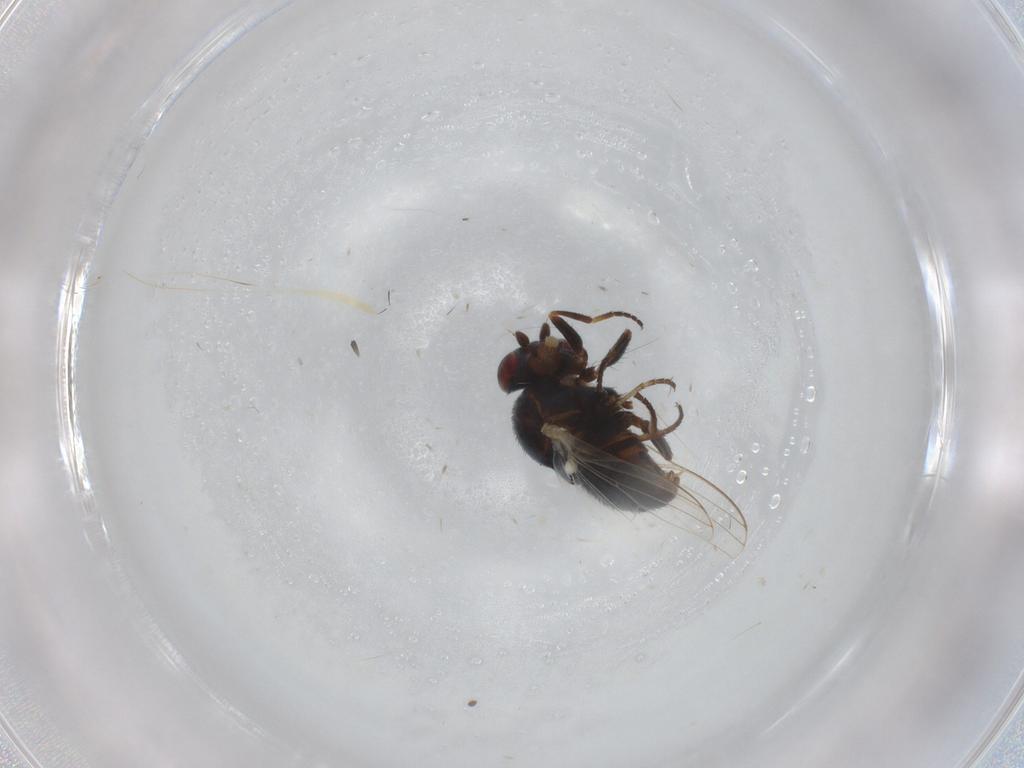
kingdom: Animalia
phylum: Arthropoda
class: Insecta
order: Diptera
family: Chamaemyiidae
